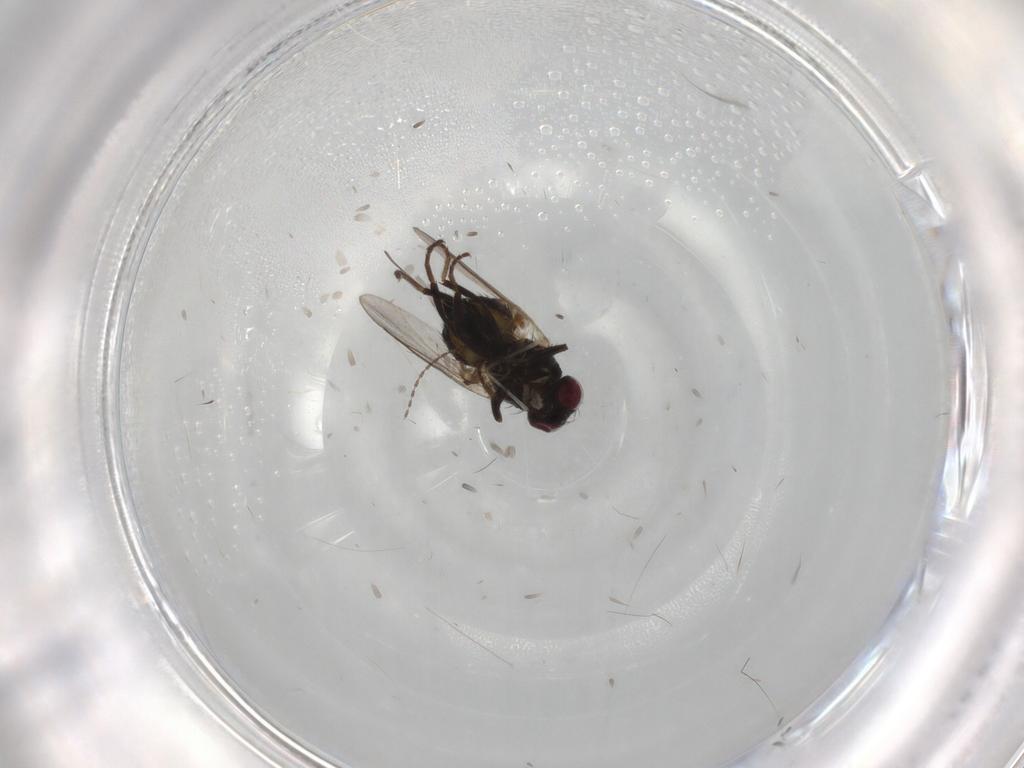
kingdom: Animalia
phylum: Arthropoda
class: Insecta
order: Diptera
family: Agromyzidae
